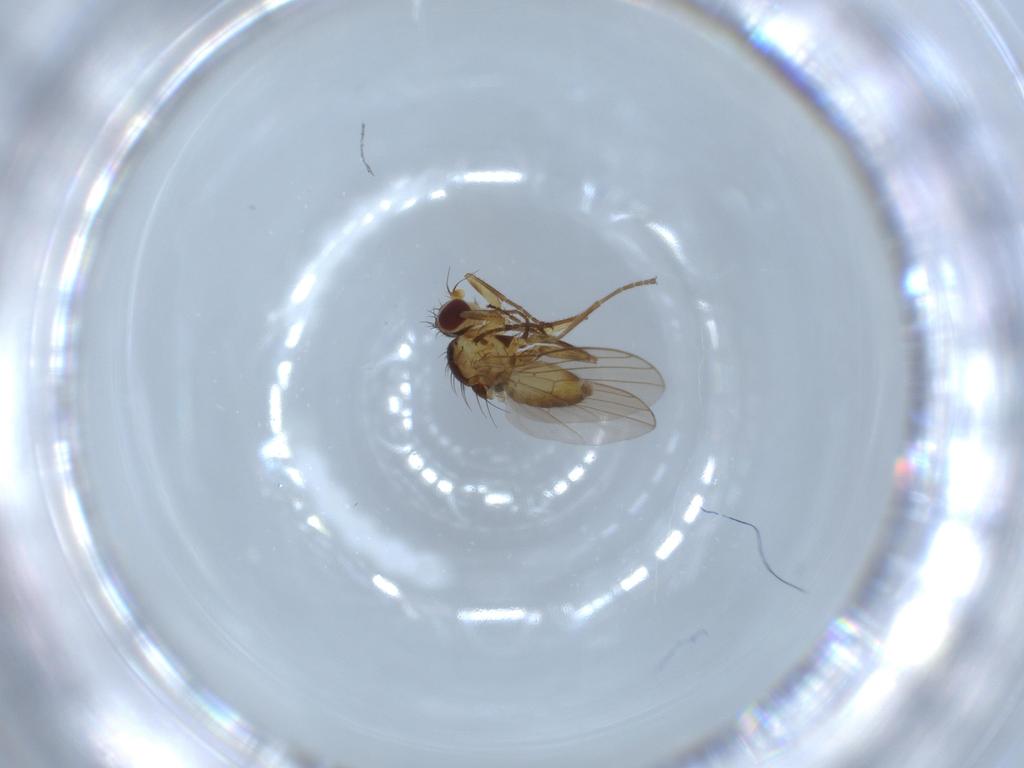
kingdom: Animalia
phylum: Arthropoda
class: Insecta
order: Diptera
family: Agromyzidae
